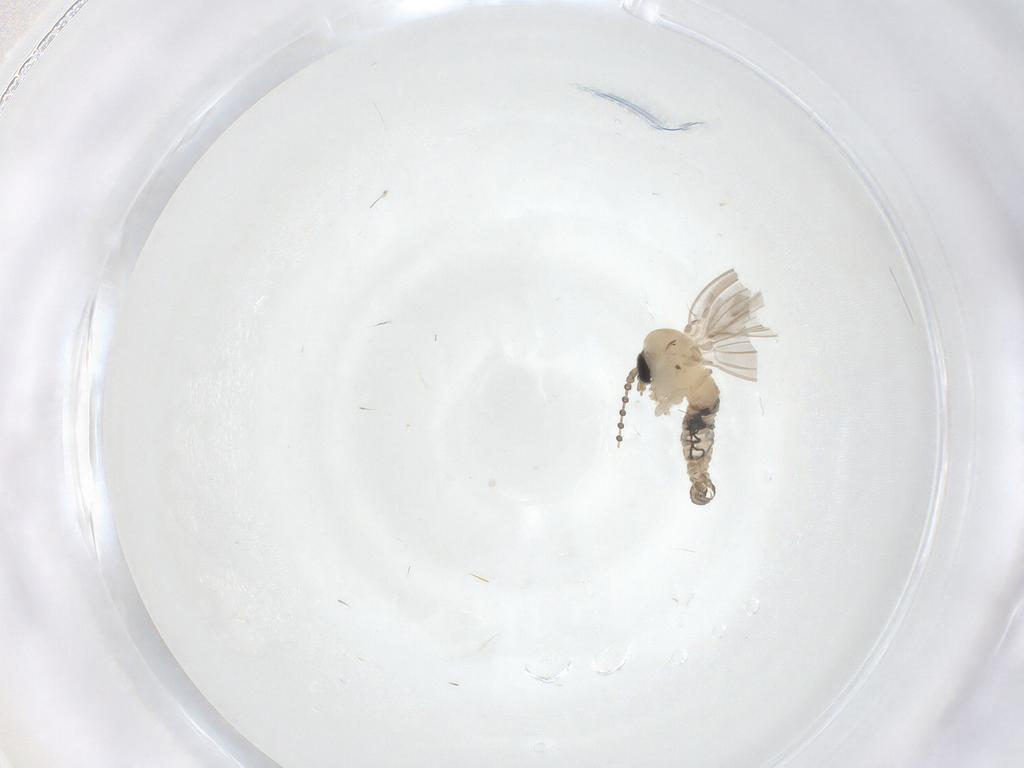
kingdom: Animalia
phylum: Arthropoda
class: Insecta
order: Diptera
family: Psychodidae
